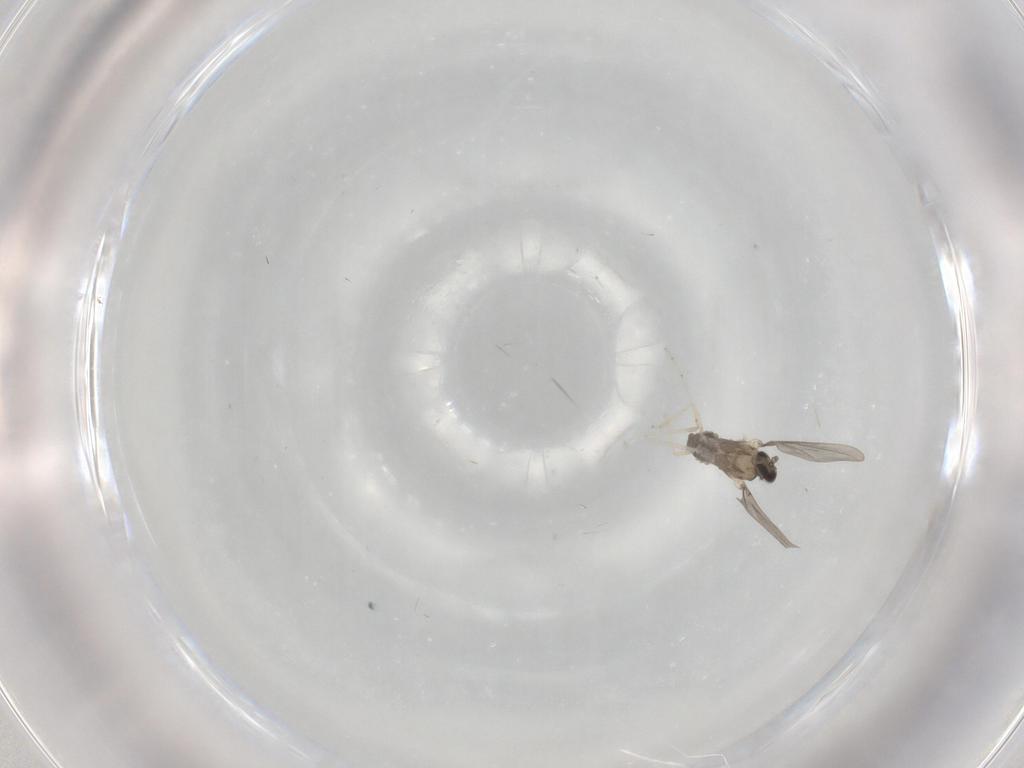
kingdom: Animalia
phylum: Arthropoda
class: Insecta
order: Diptera
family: Cecidomyiidae
